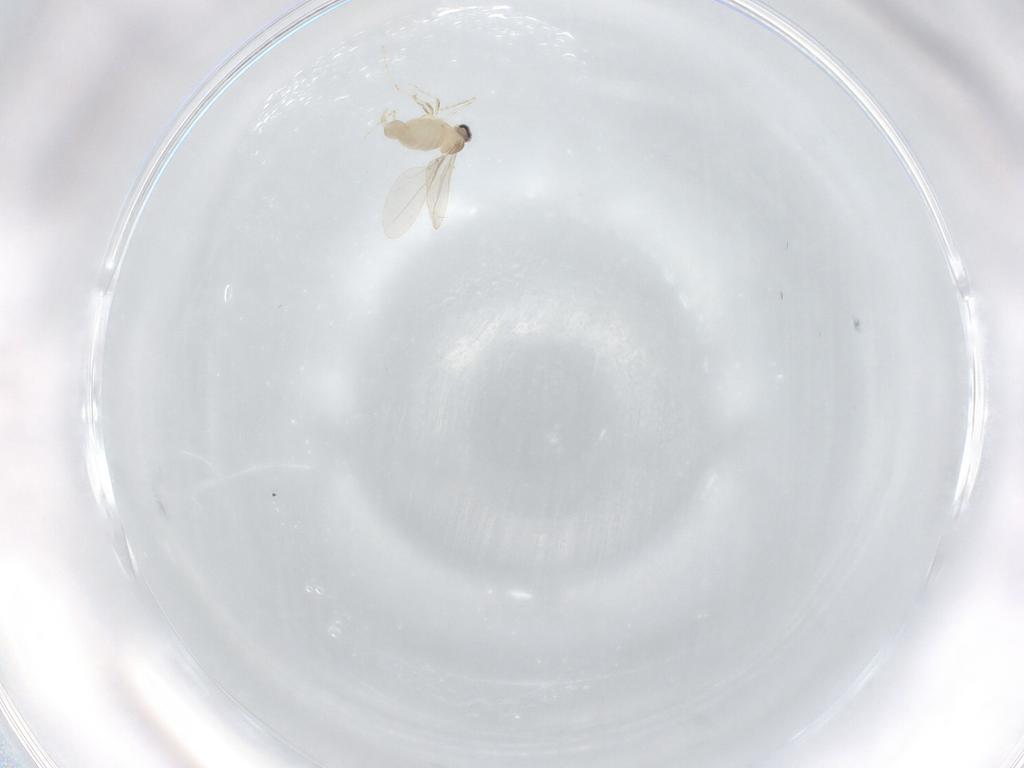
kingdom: Animalia
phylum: Arthropoda
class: Insecta
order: Diptera
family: Cecidomyiidae
